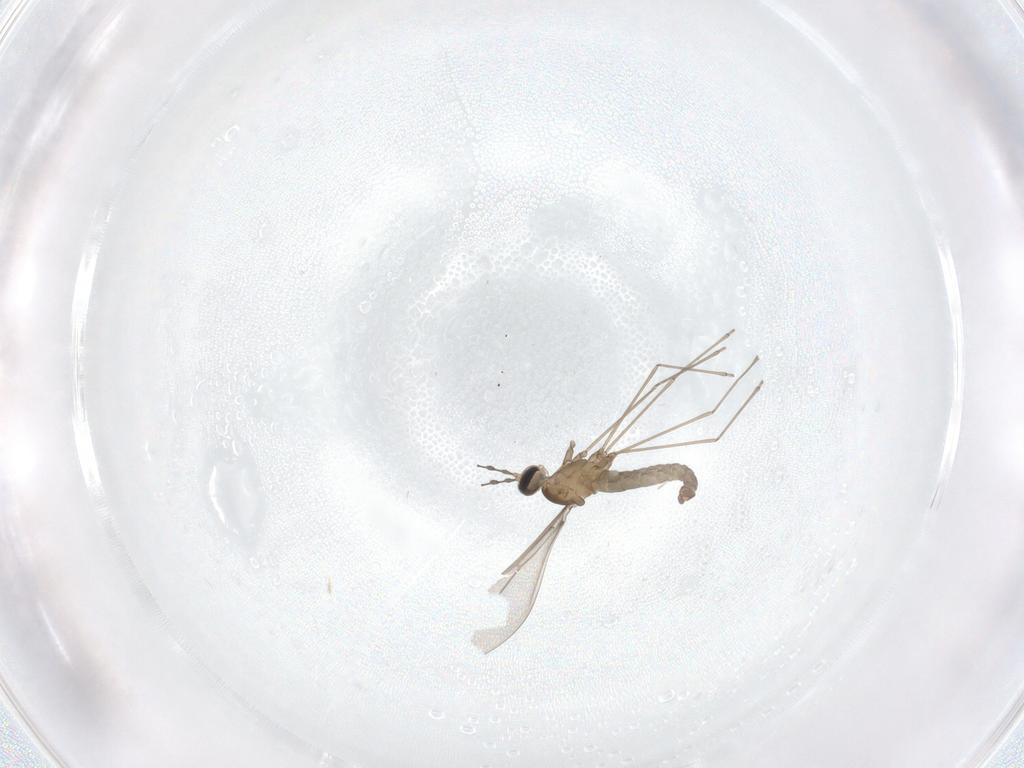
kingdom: Animalia
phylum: Arthropoda
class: Insecta
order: Diptera
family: Cecidomyiidae
